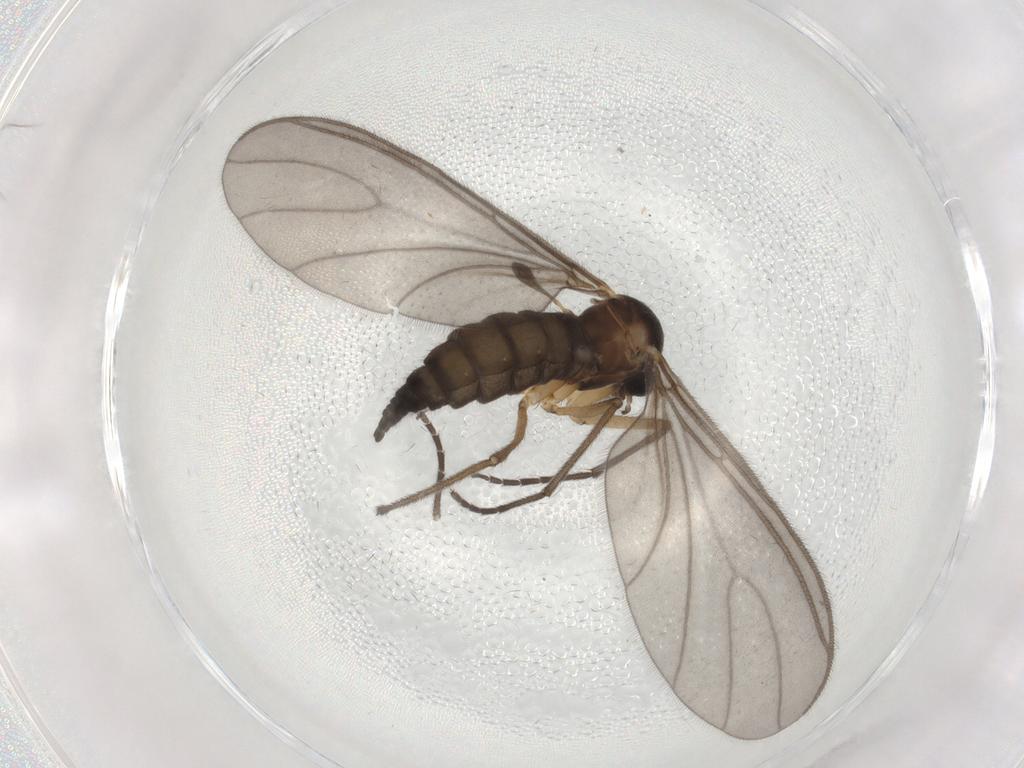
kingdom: Animalia
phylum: Arthropoda
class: Insecta
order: Diptera
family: Sciaridae
